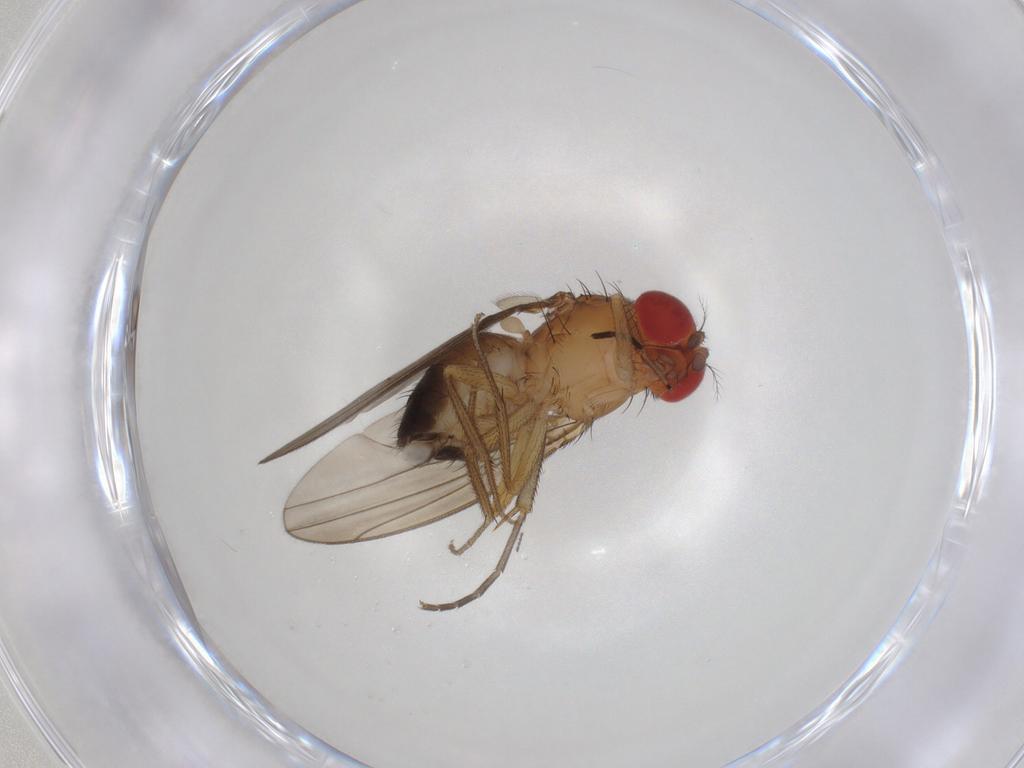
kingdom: Animalia
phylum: Arthropoda
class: Insecta
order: Diptera
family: Drosophilidae
